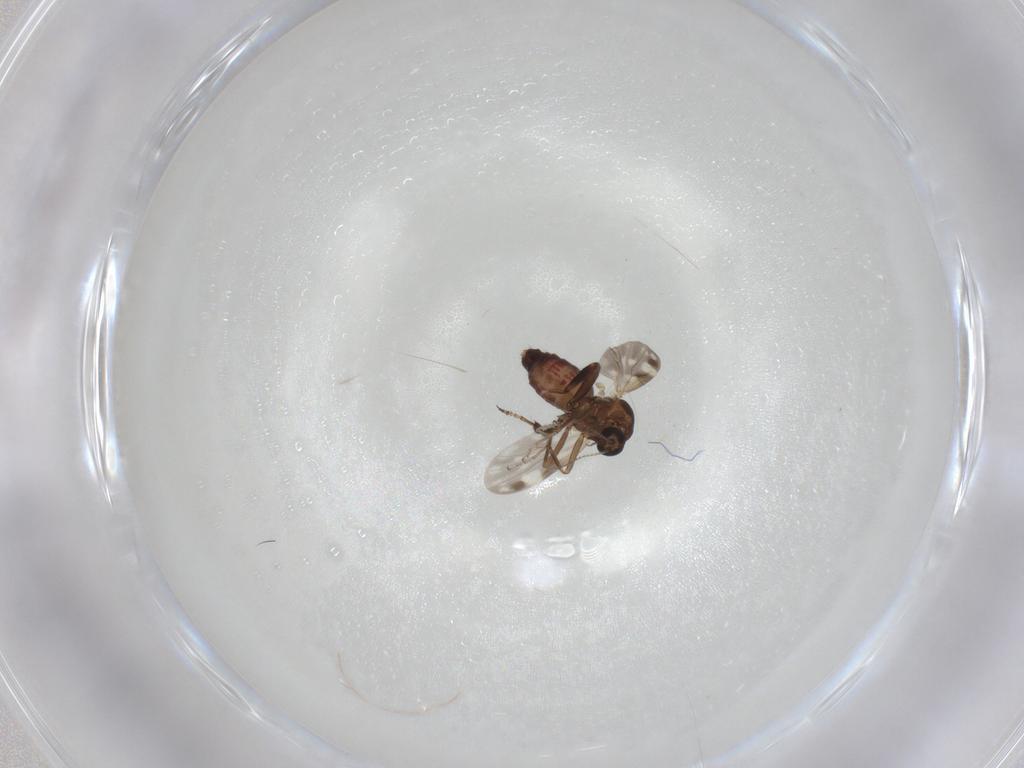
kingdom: Animalia
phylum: Arthropoda
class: Insecta
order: Diptera
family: Ceratopogonidae
